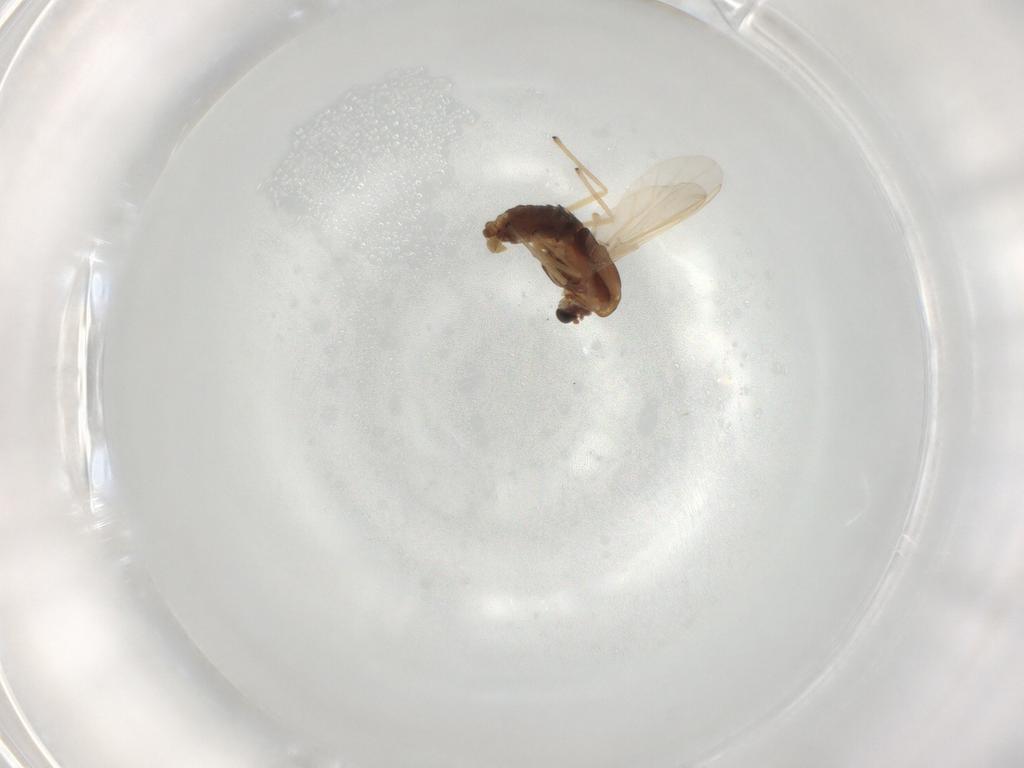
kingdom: Animalia
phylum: Arthropoda
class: Insecta
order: Diptera
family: Chironomidae
